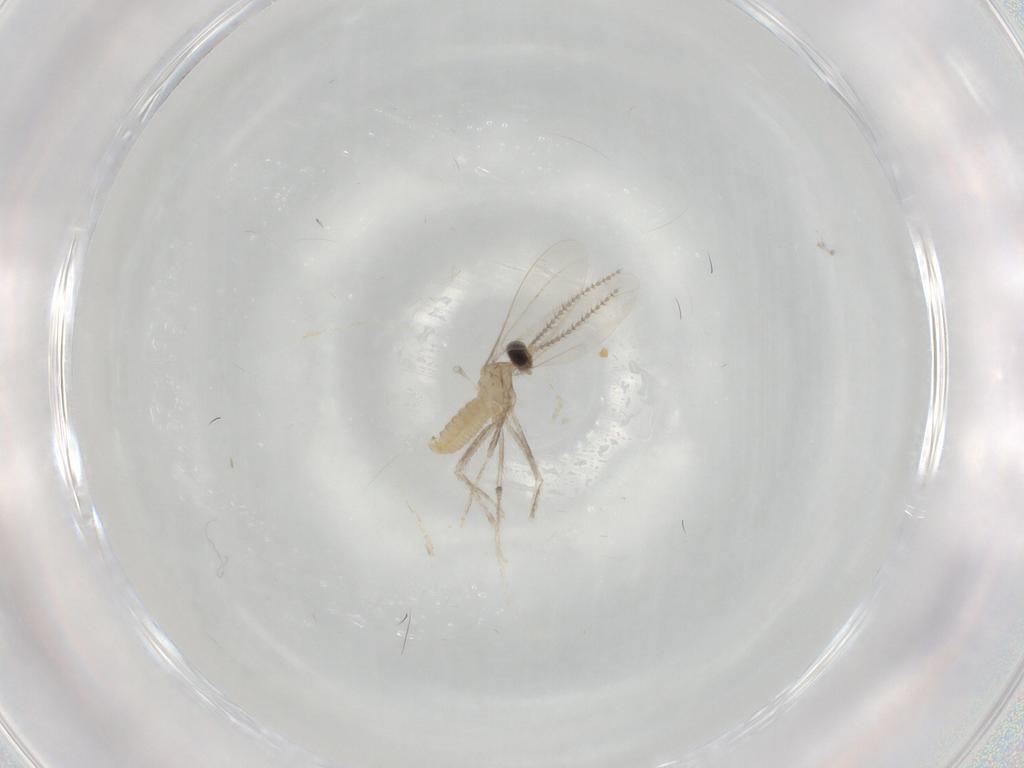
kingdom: Animalia
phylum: Arthropoda
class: Insecta
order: Diptera
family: Cecidomyiidae
